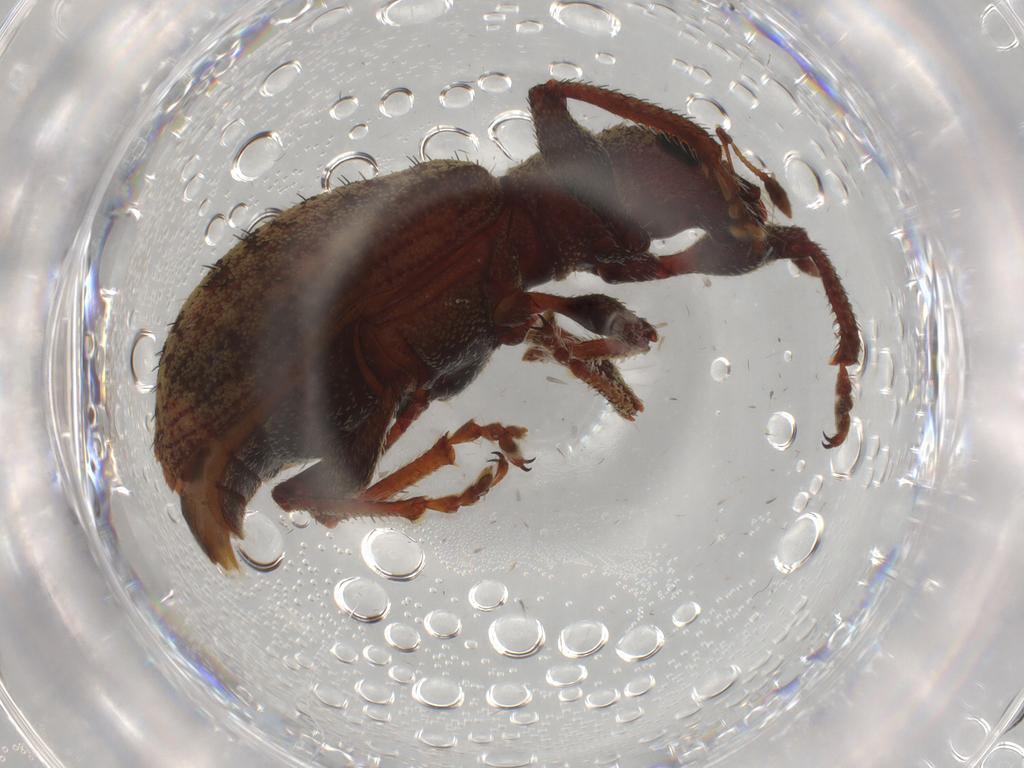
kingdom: Animalia
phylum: Arthropoda
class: Insecta
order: Coleoptera
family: Curculionidae
